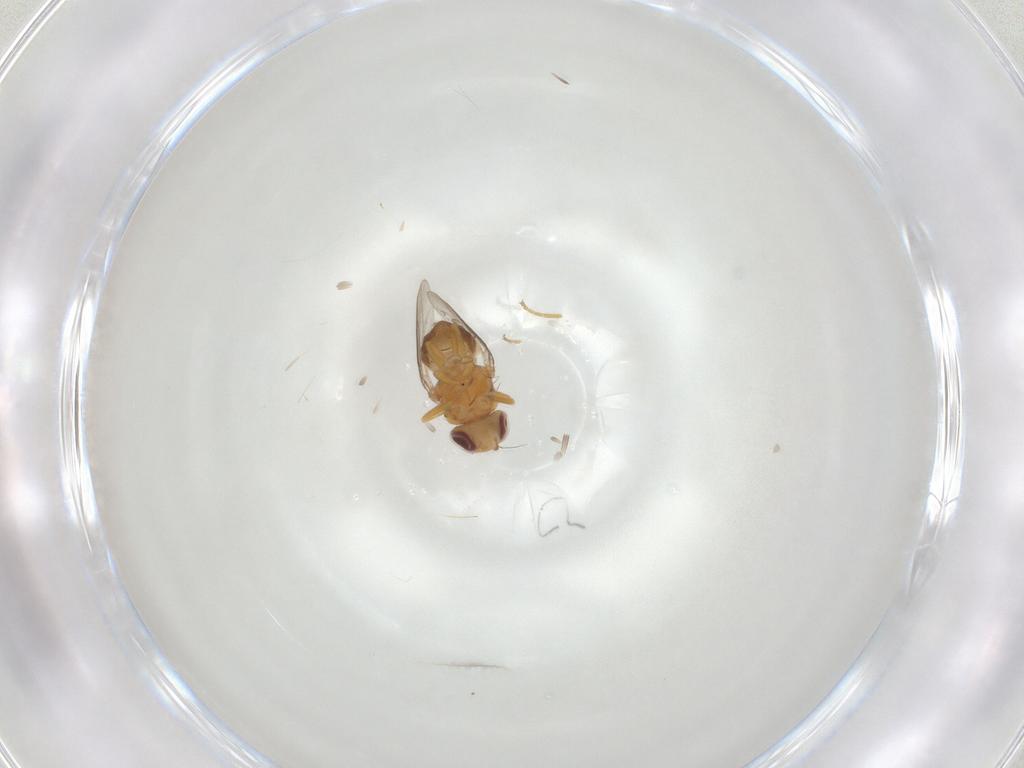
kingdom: Animalia
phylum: Arthropoda
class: Insecta
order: Diptera
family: Chloropidae
